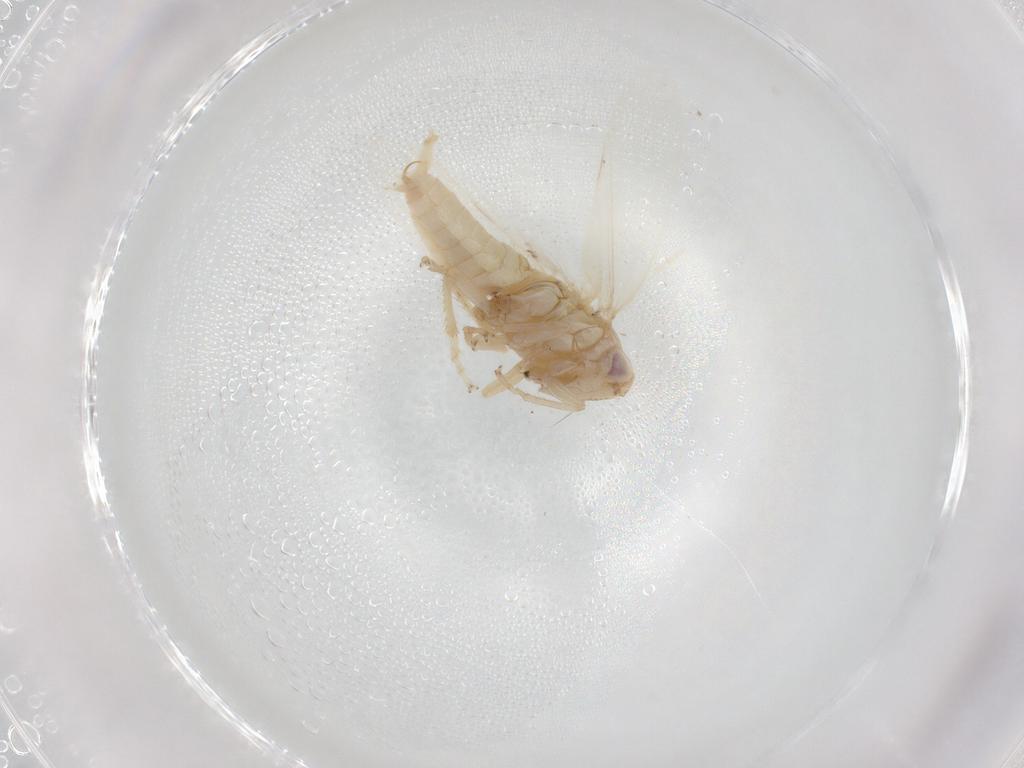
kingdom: Animalia
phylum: Arthropoda
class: Insecta
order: Hemiptera
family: Cicadellidae
